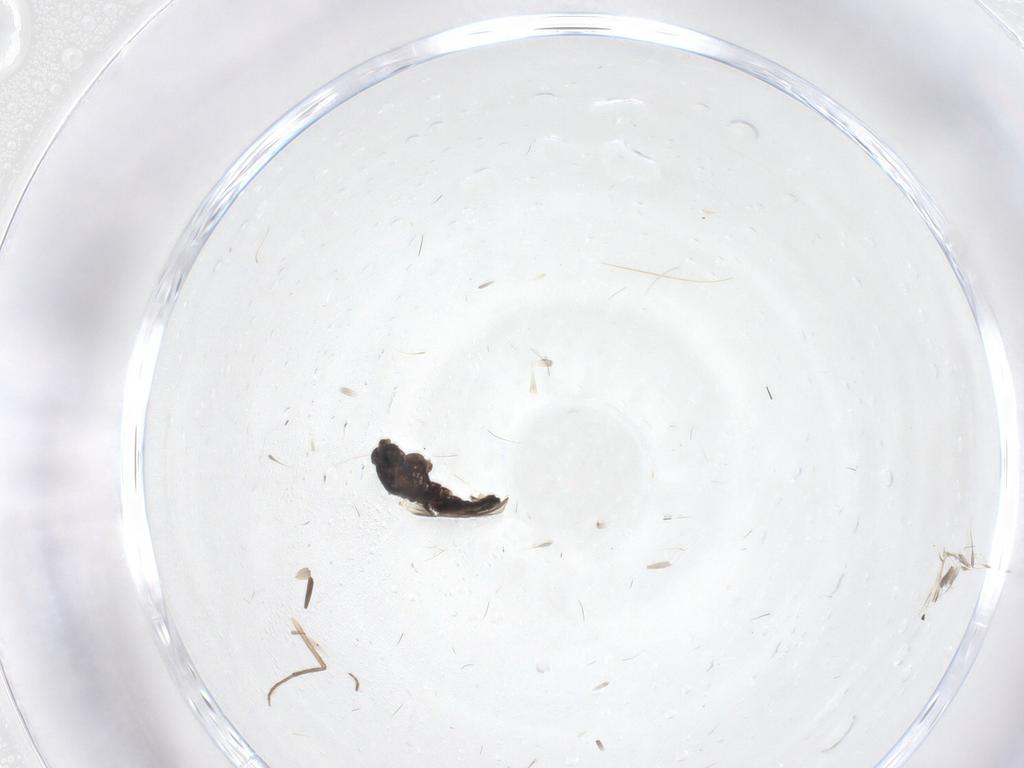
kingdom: Animalia
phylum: Arthropoda
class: Insecta
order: Diptera
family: Chironomidae
